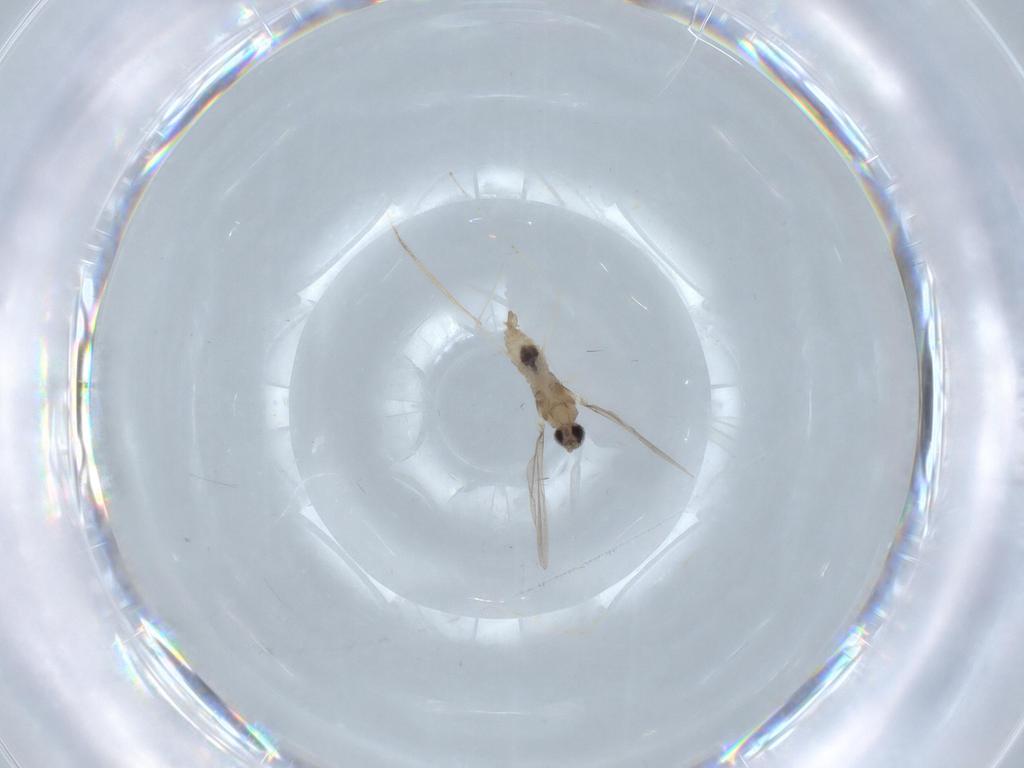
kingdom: Animalia
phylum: Arthropoda
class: Insecta
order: Diptera
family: Cecidomyiidae
